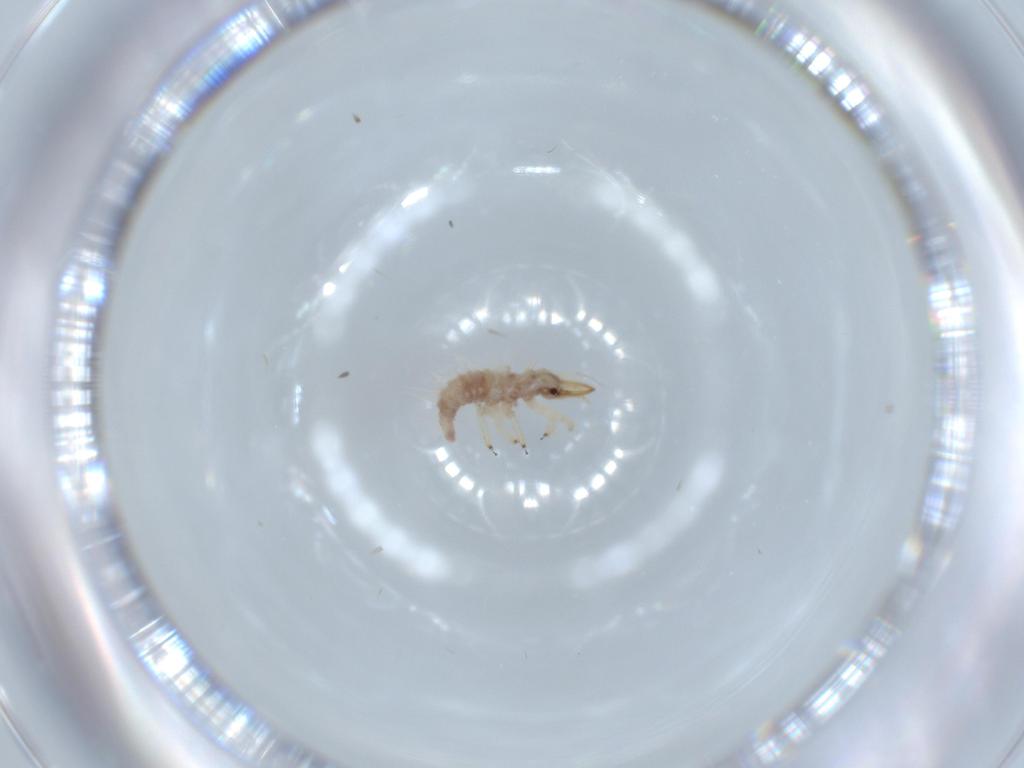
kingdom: Animalia
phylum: Arthropoda
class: Insecta
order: Neuroptera
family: Chrysopidae
